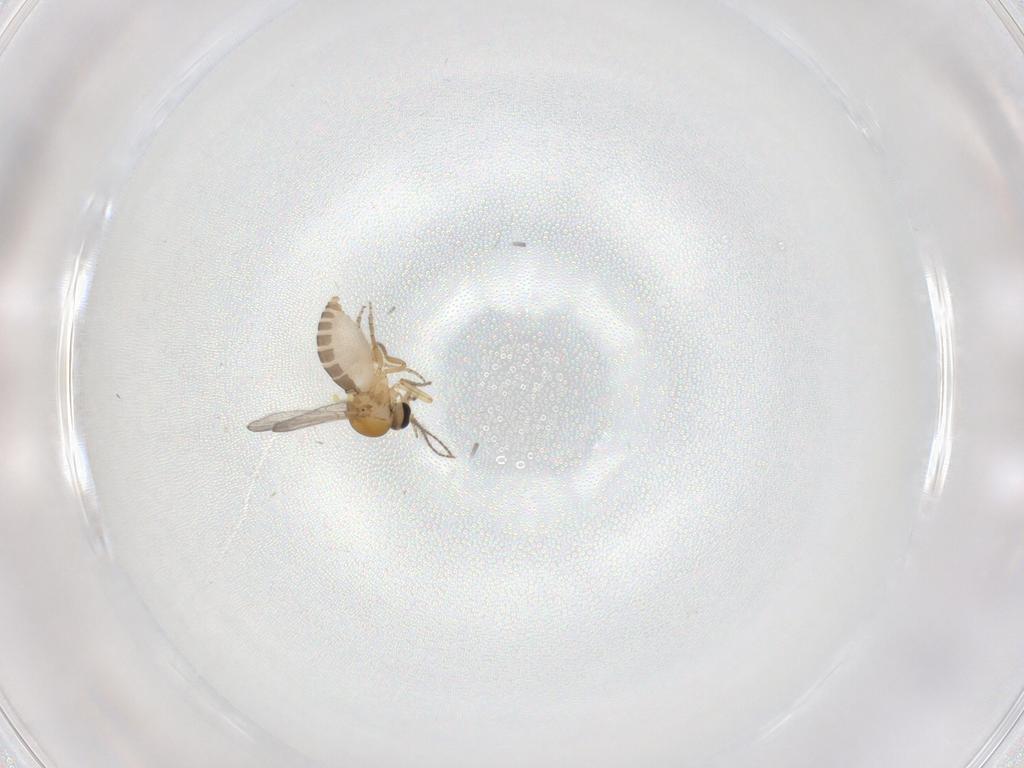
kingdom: Animalia
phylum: Arthropoda
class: Insecta
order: Diptera
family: Ceratopogonidae
